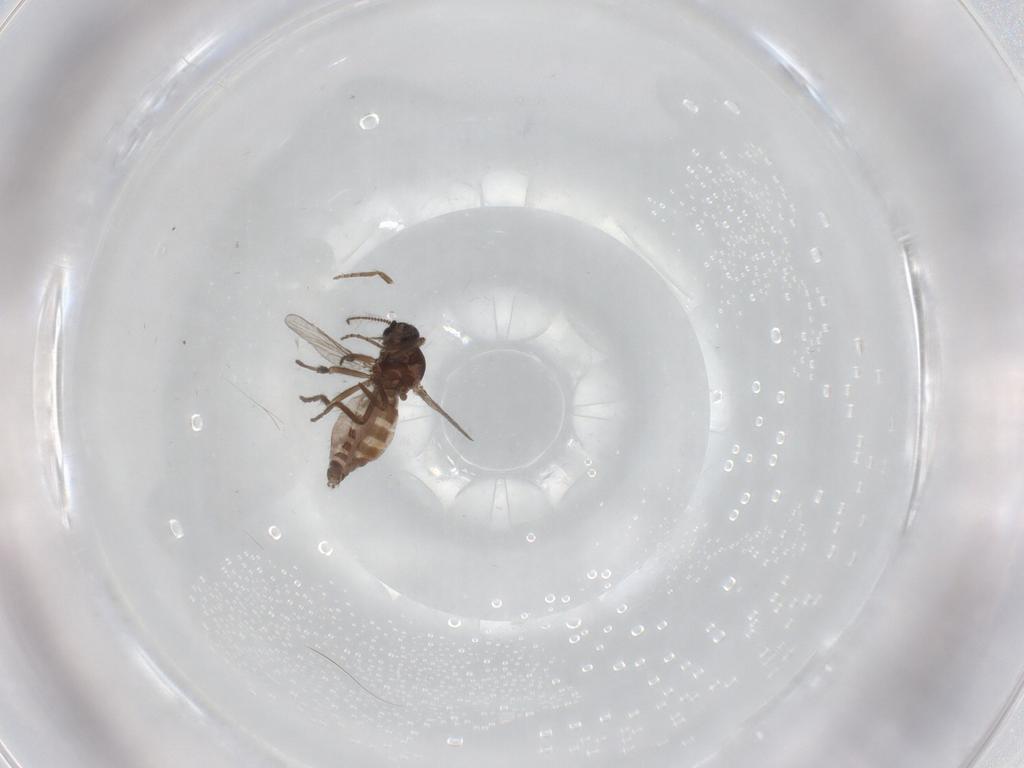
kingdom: Animalia
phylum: Arthropoda
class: Insecta
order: Diptera
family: Ceratopogonidae
